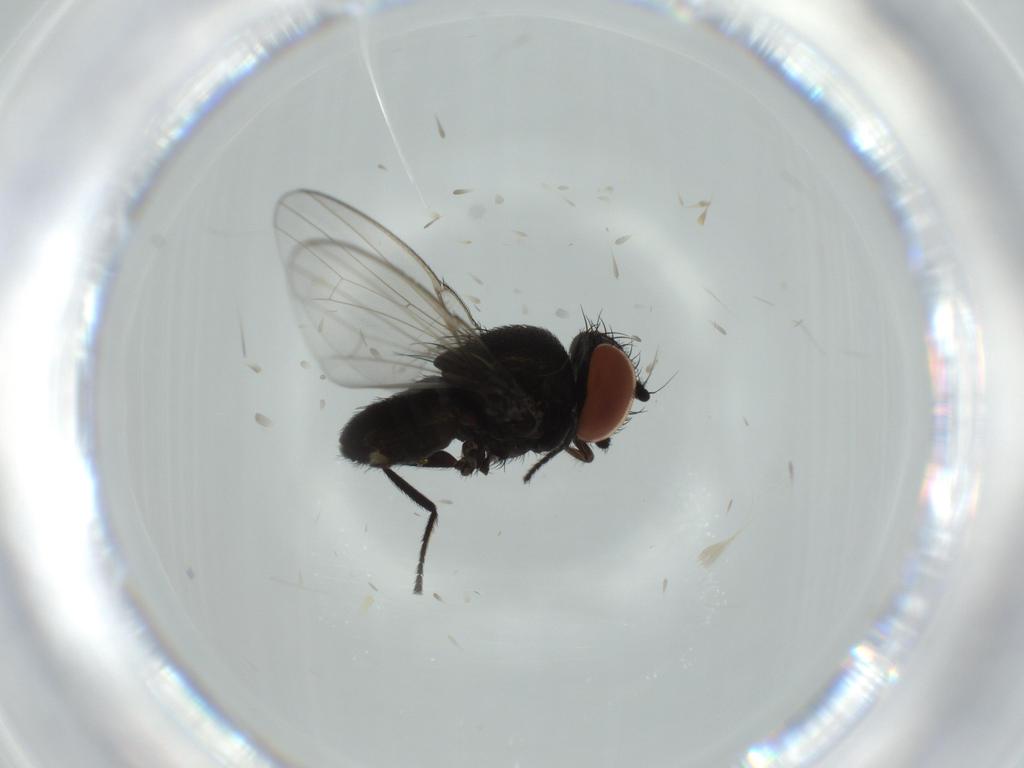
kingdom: Animalia
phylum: Arthropoda
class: Insecta
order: Diptera
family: Milichiidae
